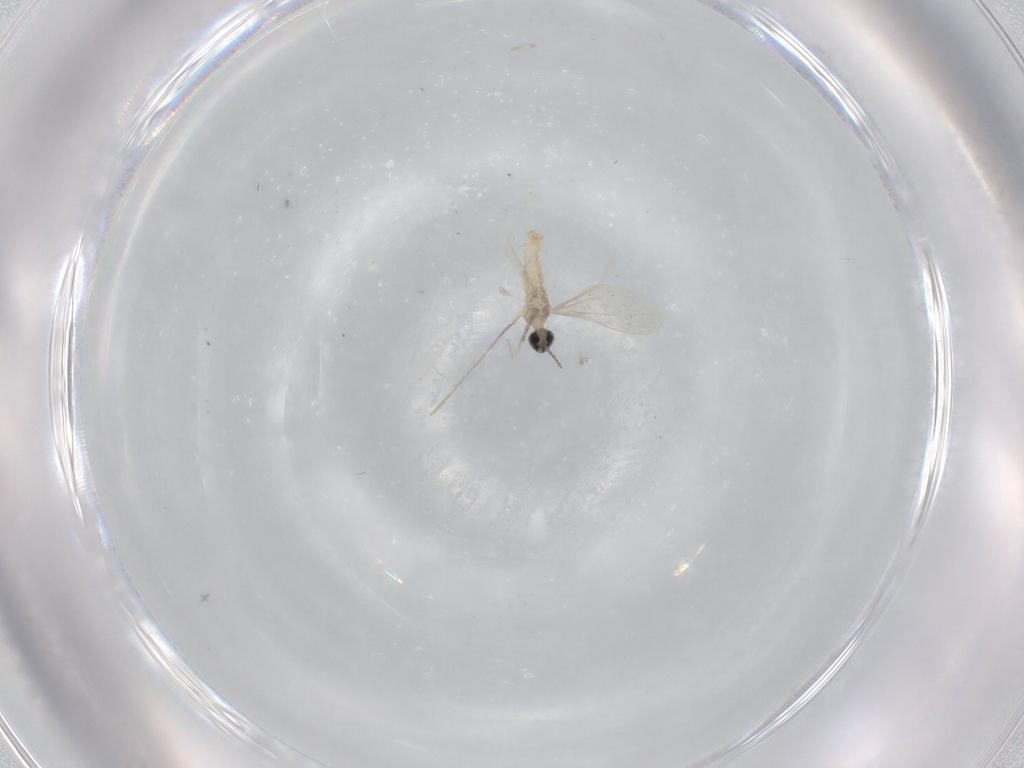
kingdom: Animalia
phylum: Arthropoda
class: Insecta
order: Diptera
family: Cecidomyiidae
